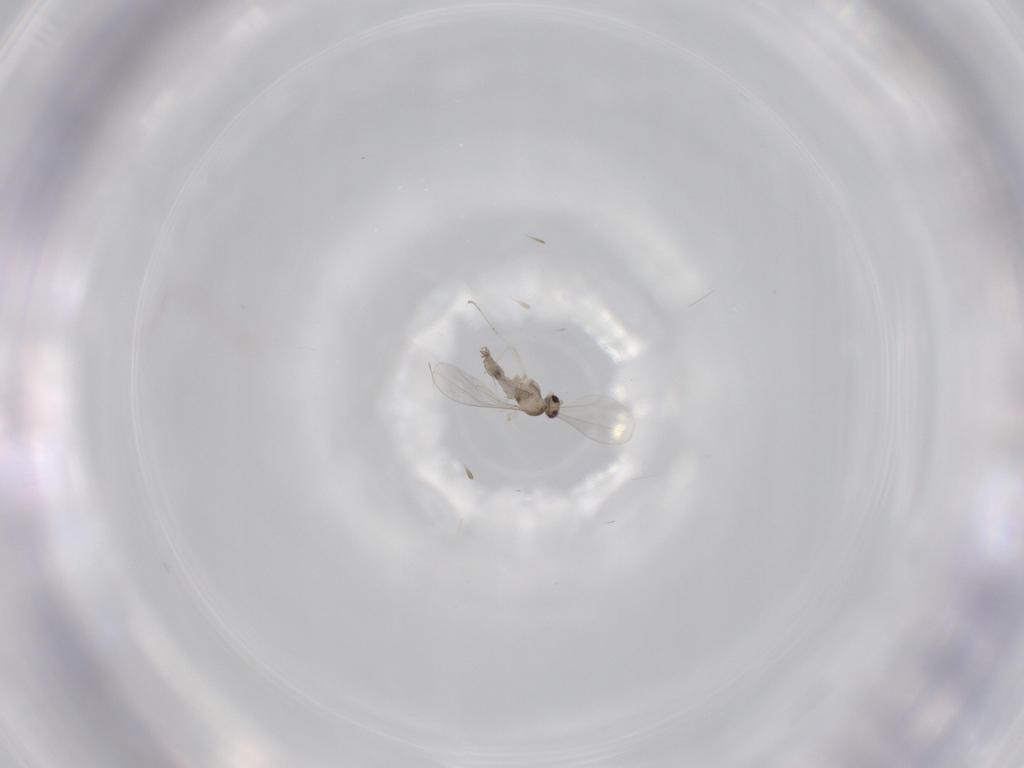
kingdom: Animalia
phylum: Arthropoda
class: Insecta
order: Diptera
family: Cecidomyiidae
